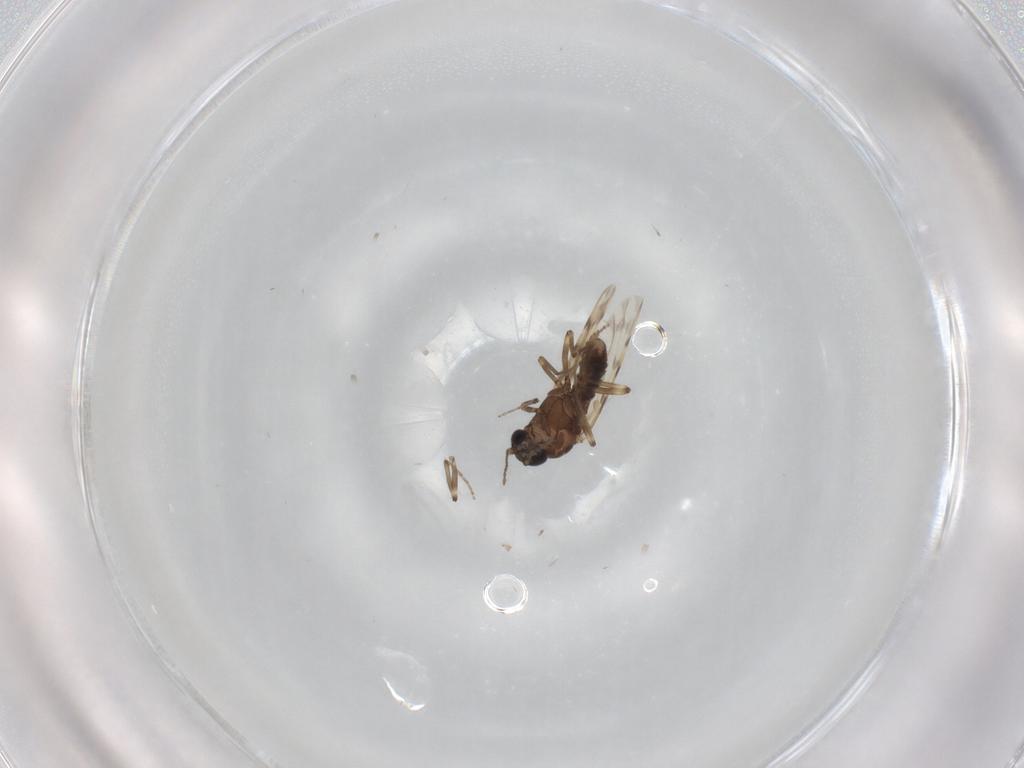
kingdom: Animalia
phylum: Arthropoda
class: Insecta
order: Diptera
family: Ceratopogonidae
